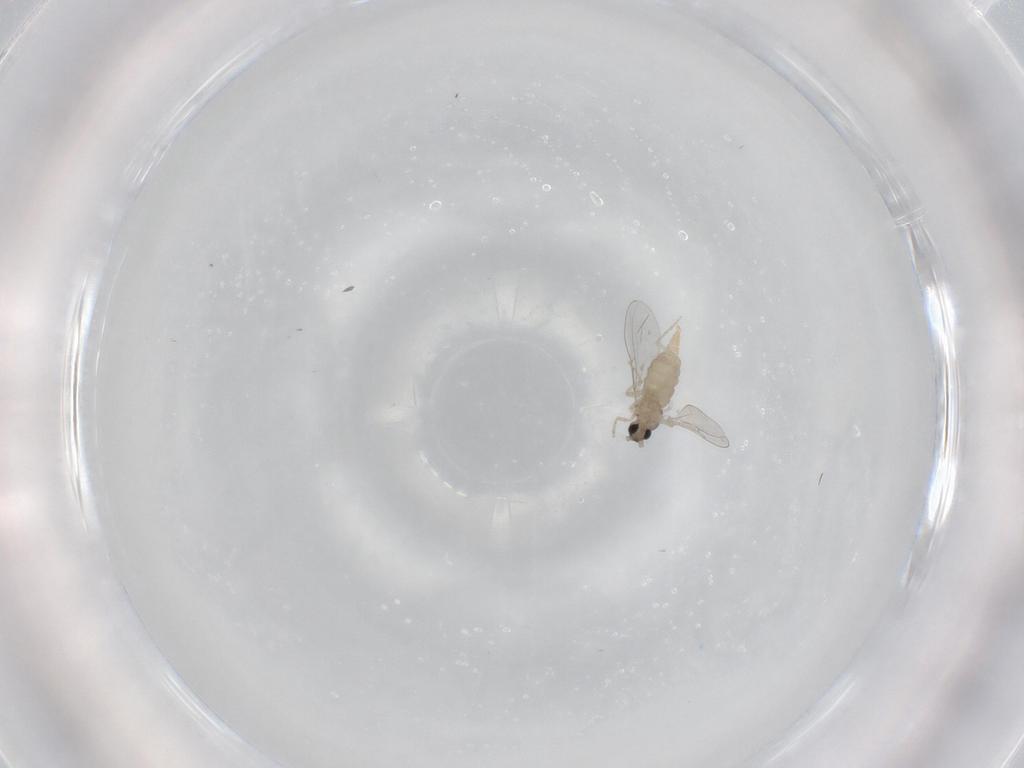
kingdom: Animalia
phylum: Arthropoda
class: Insecta
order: Diptera
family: Cecidomyiidae
